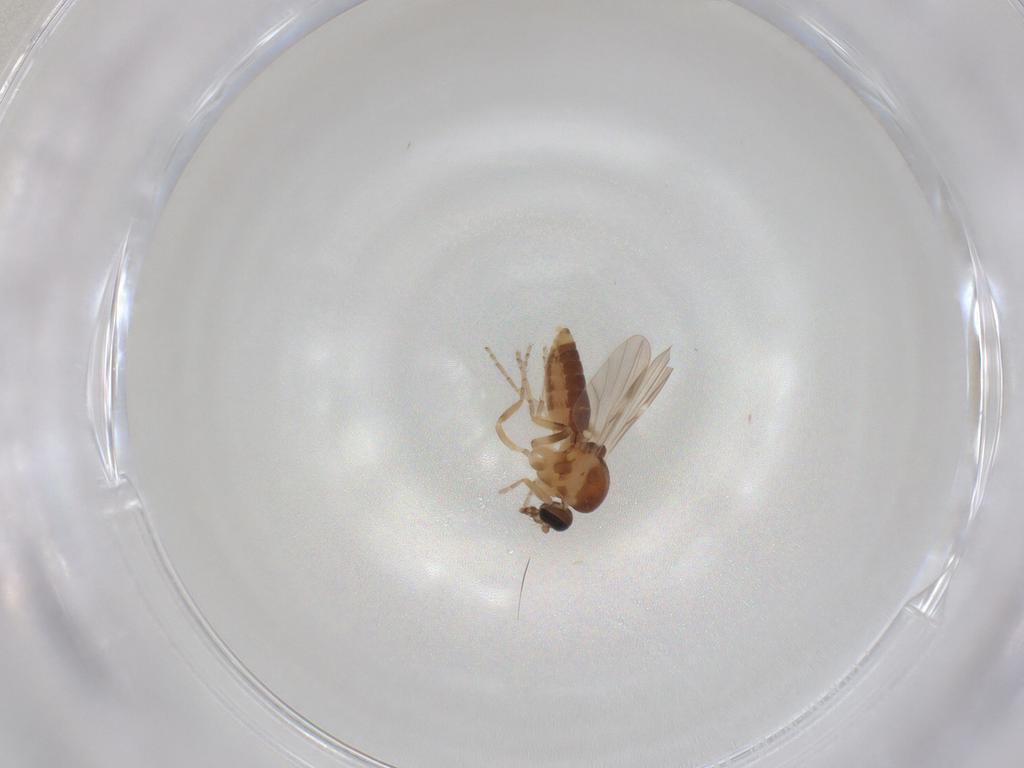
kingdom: Animalia
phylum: Arthropoda
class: Insecta
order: Diptera
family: Ceratopogonidae
